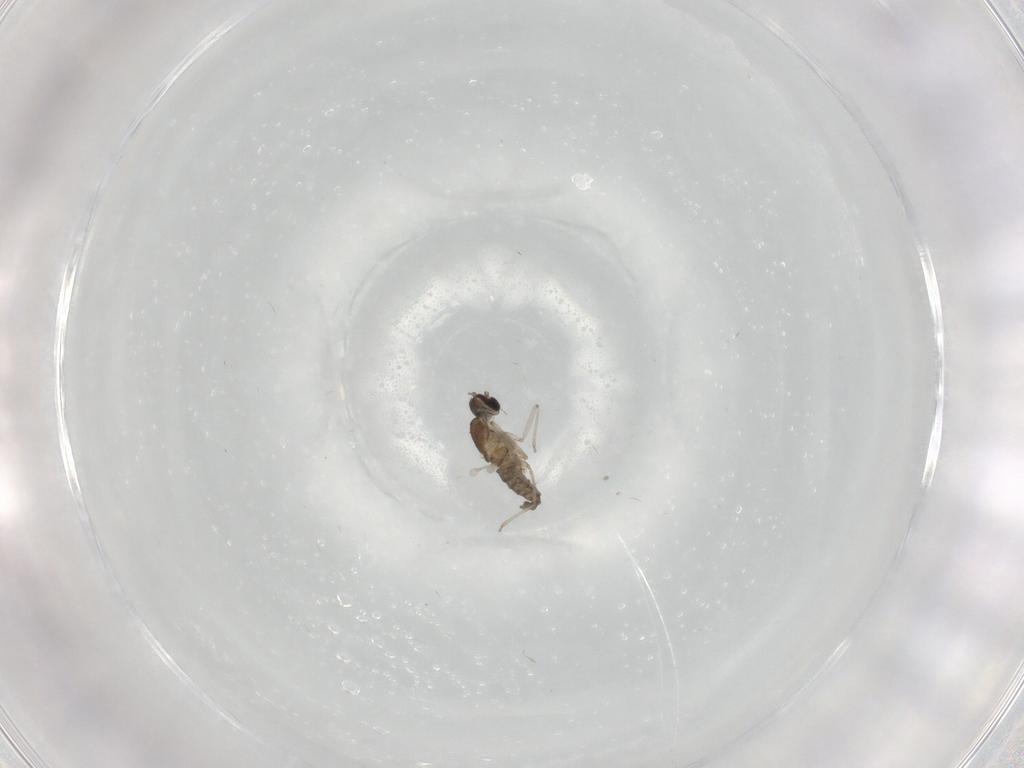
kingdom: Animalia
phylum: Arthropoda
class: Insecta
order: Diptera
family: Cecidomyiidae
